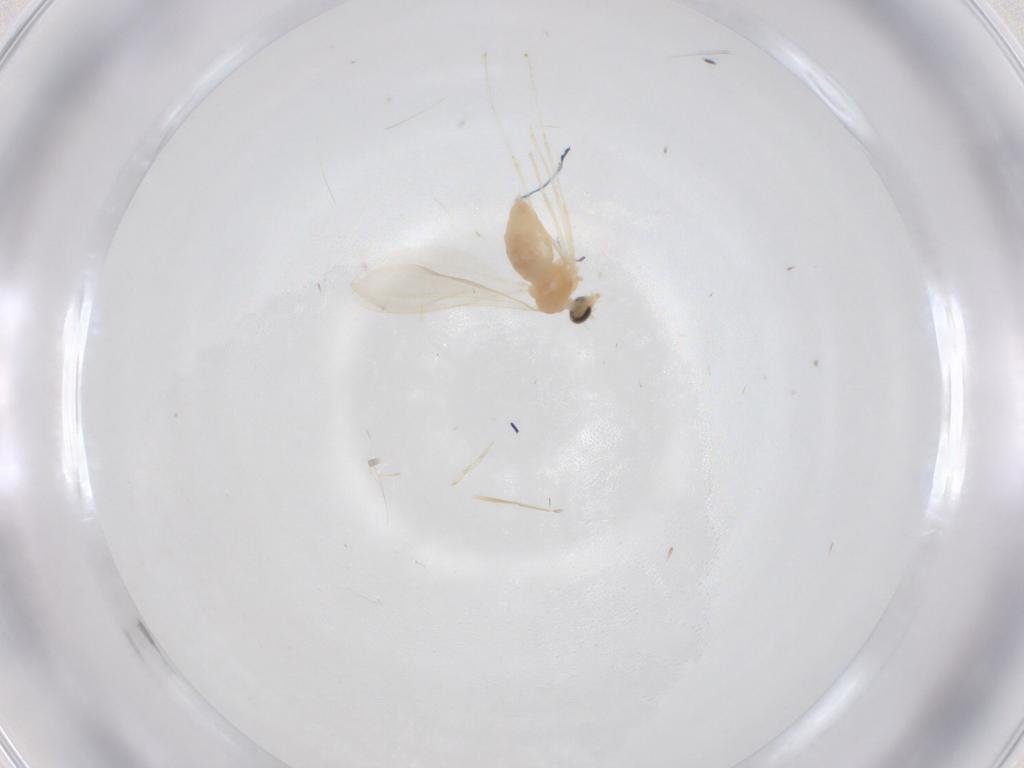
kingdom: Animalia
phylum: Arthropoda
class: Insecta
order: Diptera
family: Cecidomyiidae
